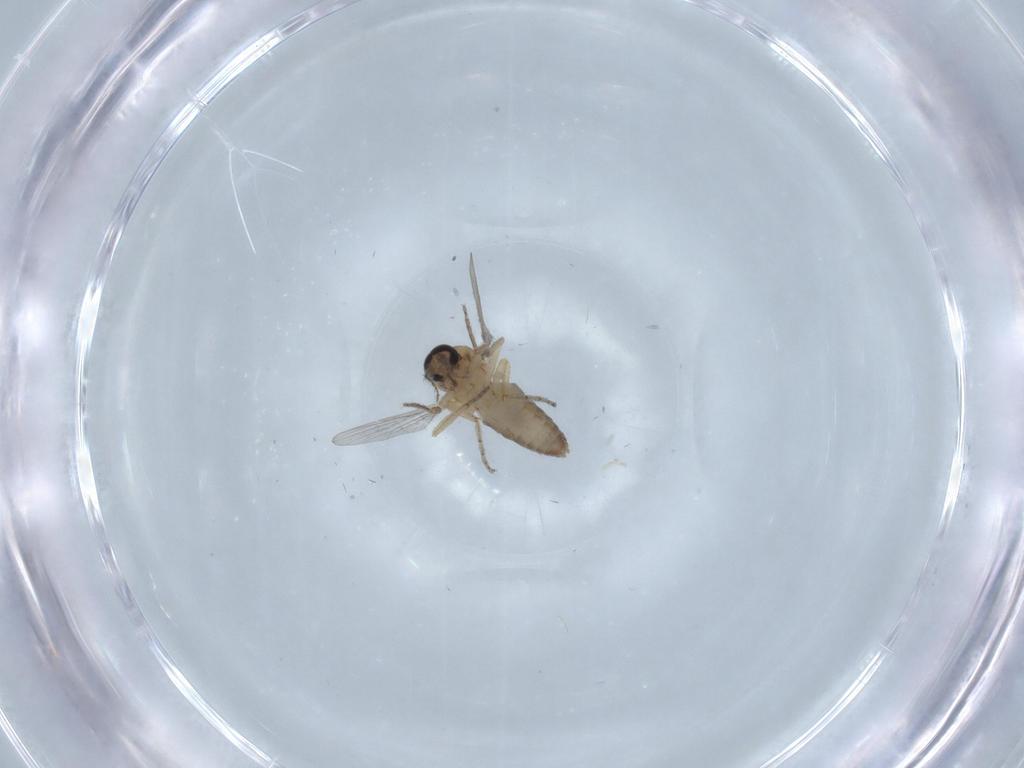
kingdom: Animalia
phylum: Arthropoda
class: Insecta
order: Diptera
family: Ceratopogonidae
